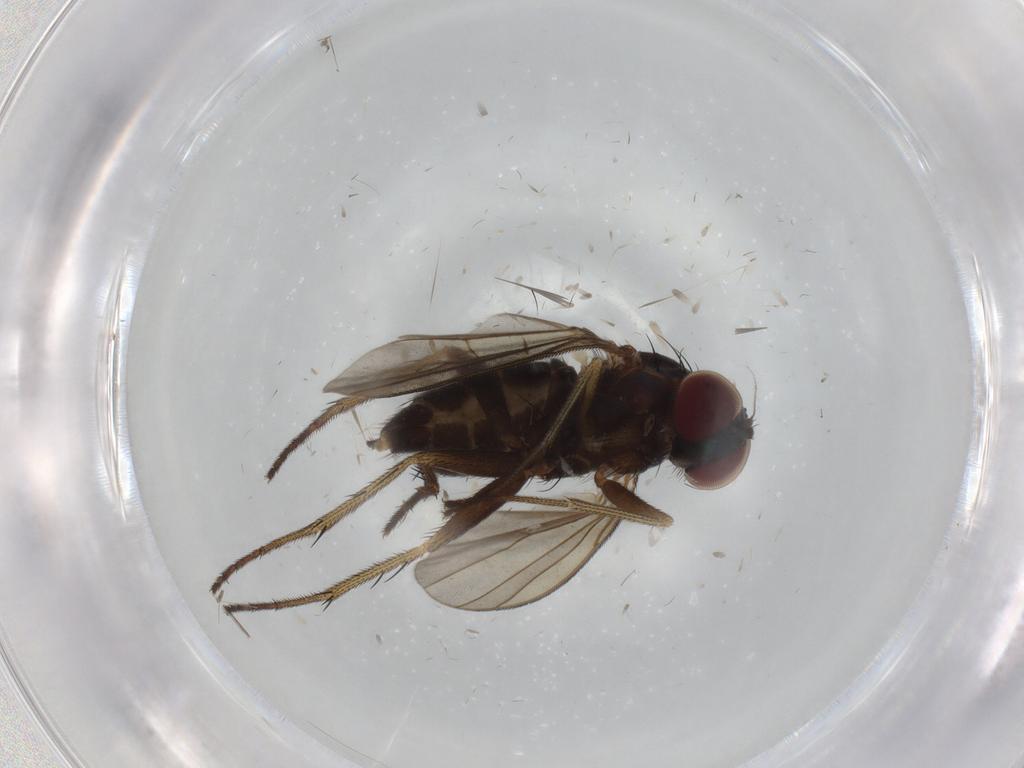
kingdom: Animalia
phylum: Arthropoda
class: Insecta
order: Diptera
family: Dolichopodidae
